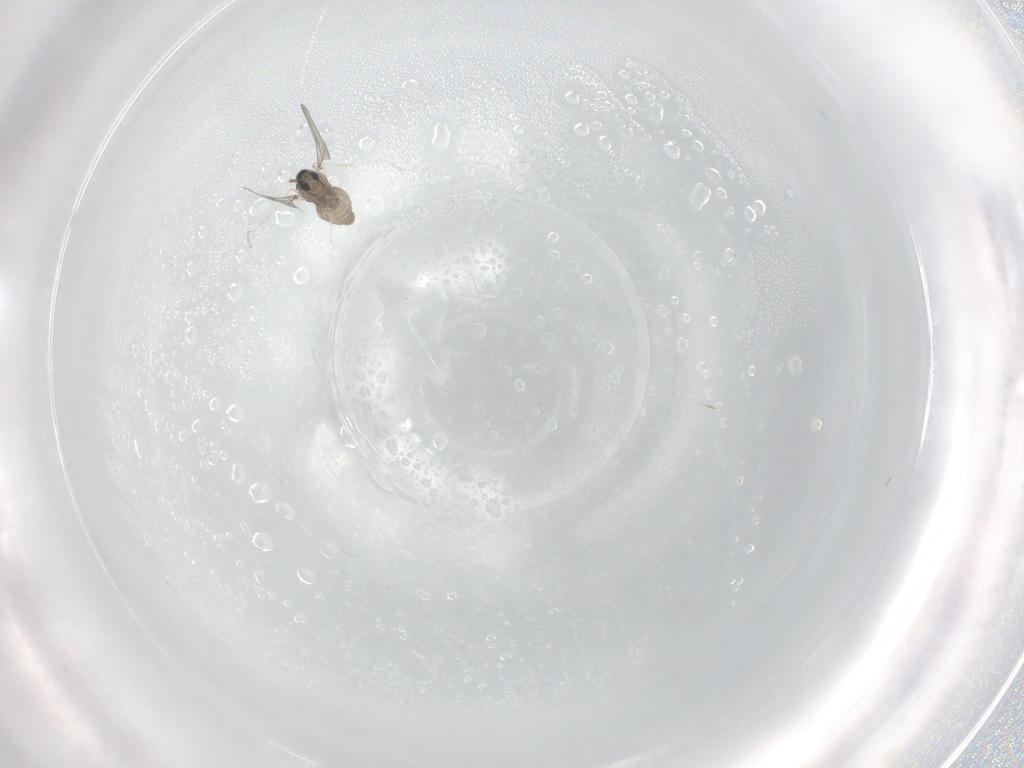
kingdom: Animalia
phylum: Arthropoda
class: Insecta
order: Diptera
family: Cecidomyiidae
